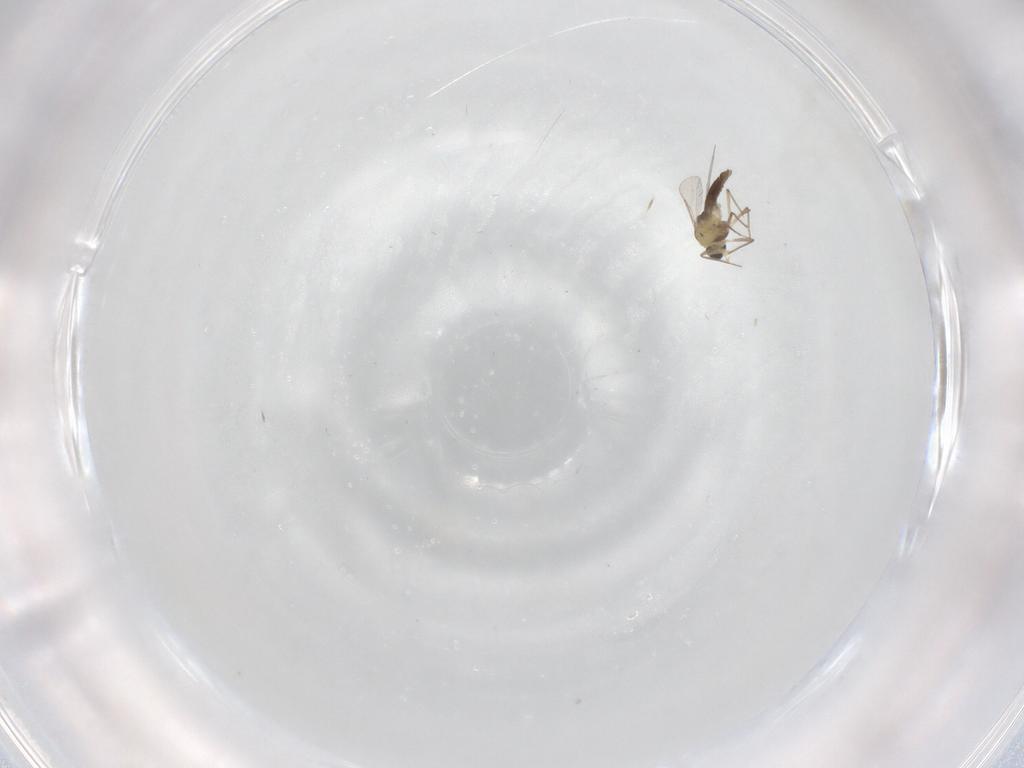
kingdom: Animalia
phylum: Arthropoda
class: Insecta
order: Diptera
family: Chironomidae
